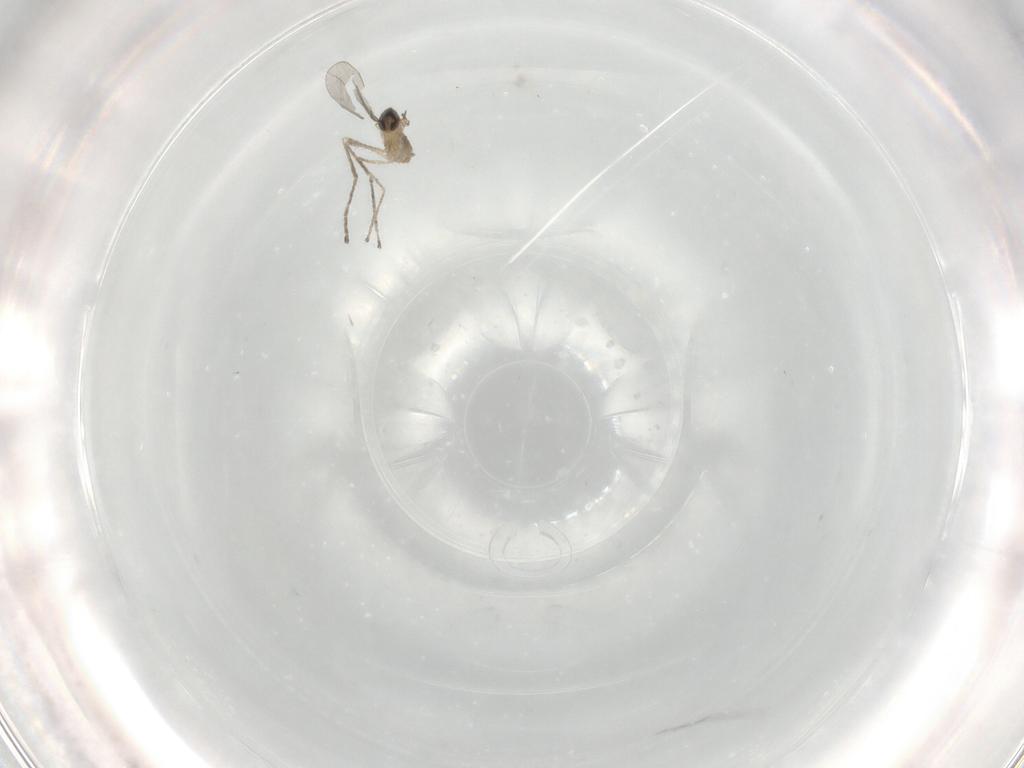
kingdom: Animalia
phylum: Arthropoda
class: Insecta
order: Diptera
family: Cecidomyiidae
